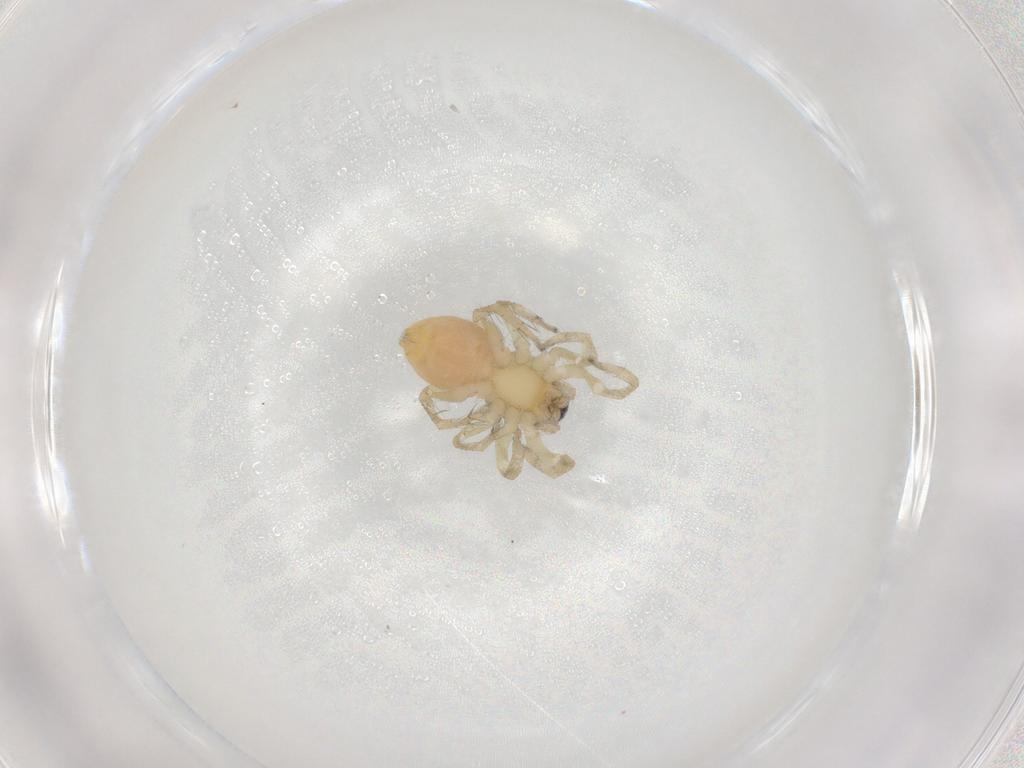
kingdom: Animalia
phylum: Arthropoda
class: Arachnida
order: Araneae
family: Anyphaenidae
